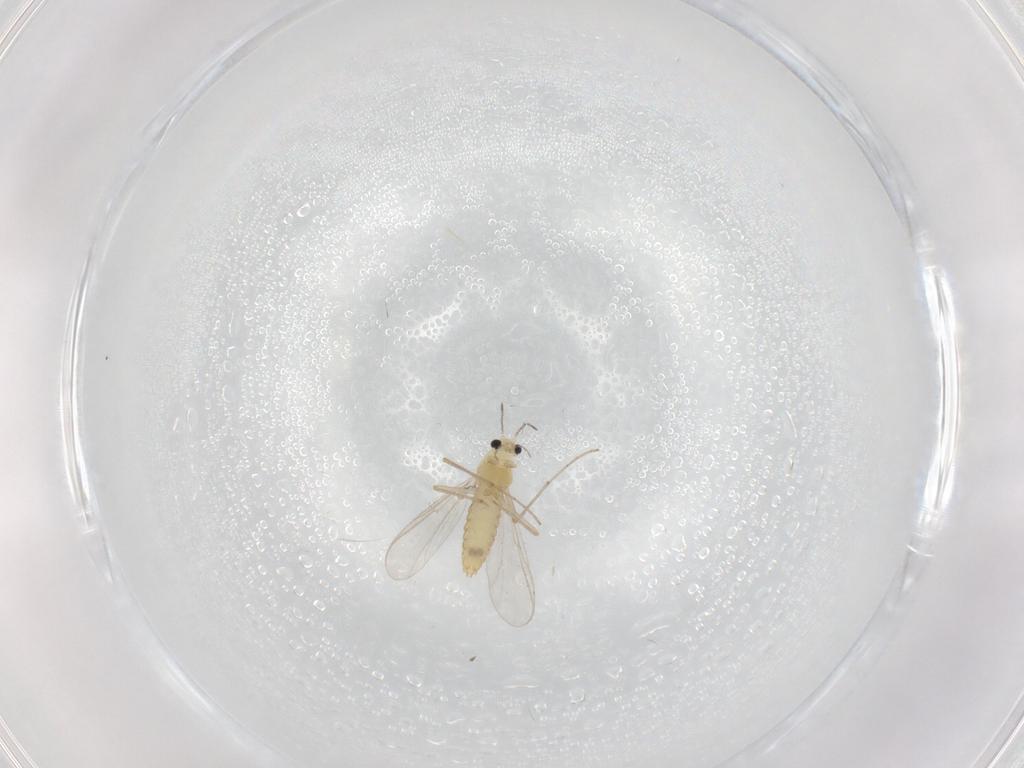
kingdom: Animalia
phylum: Arthropoda
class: Insecta
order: Diptera
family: Chironomidae
